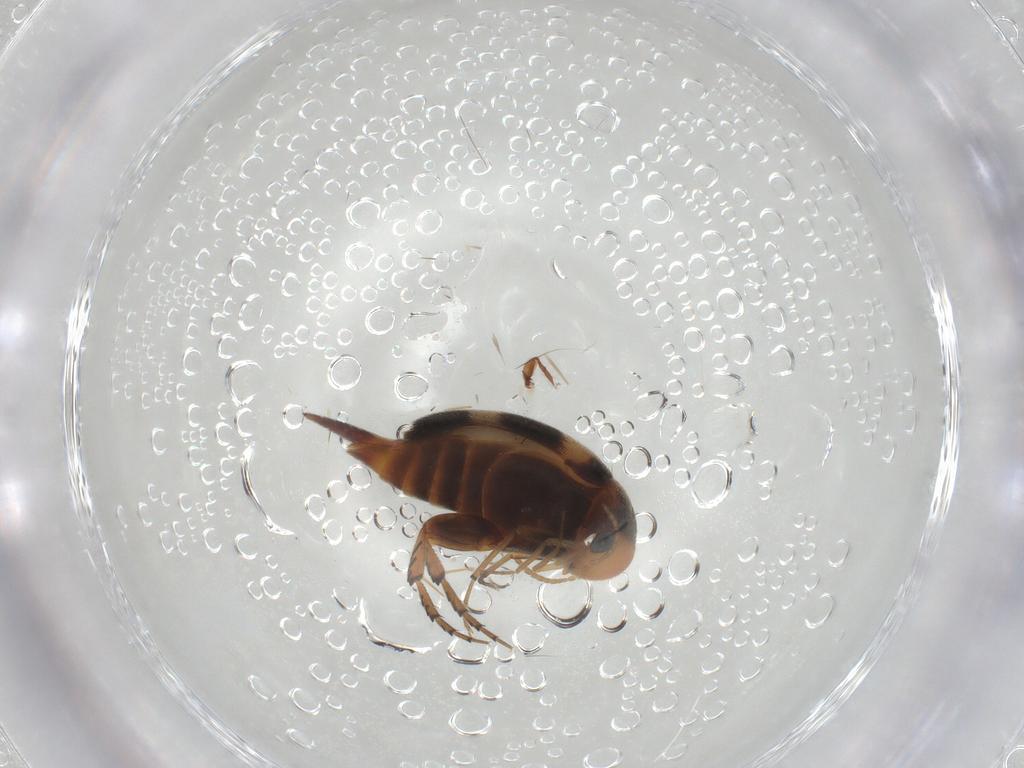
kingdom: Animalia
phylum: Arthropoda
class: Insecta
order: Coleoptera
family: Mordellidae
